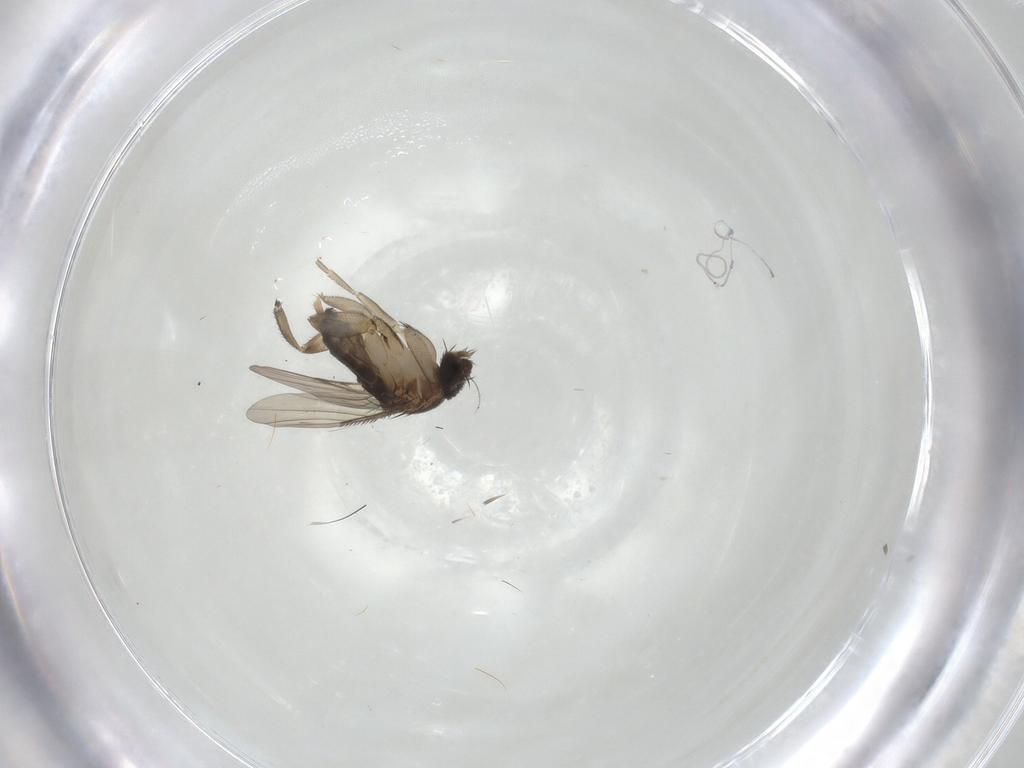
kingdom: Animalia
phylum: Arthropoda
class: Insecta
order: Diptera
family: Phoridae
